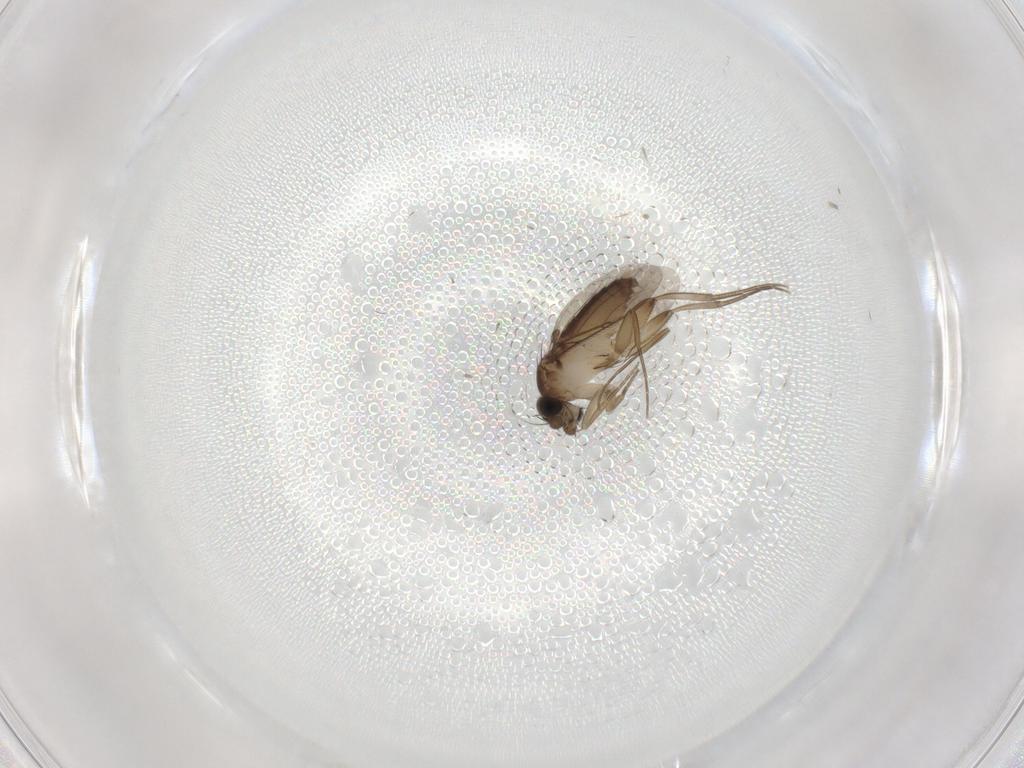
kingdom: Animalia
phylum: Arthropoda
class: Insecta
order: Diptera
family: Phoridae
